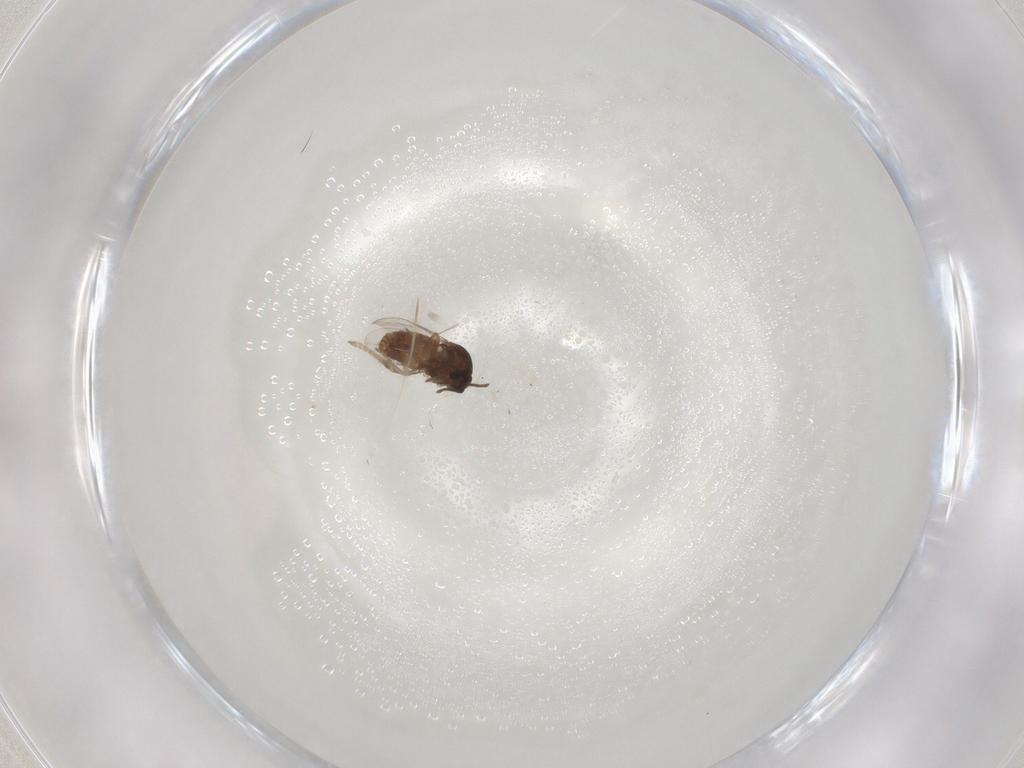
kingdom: Animalia
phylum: Arthropoda
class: Insecta
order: Diptera
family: Ceratopogonidae
